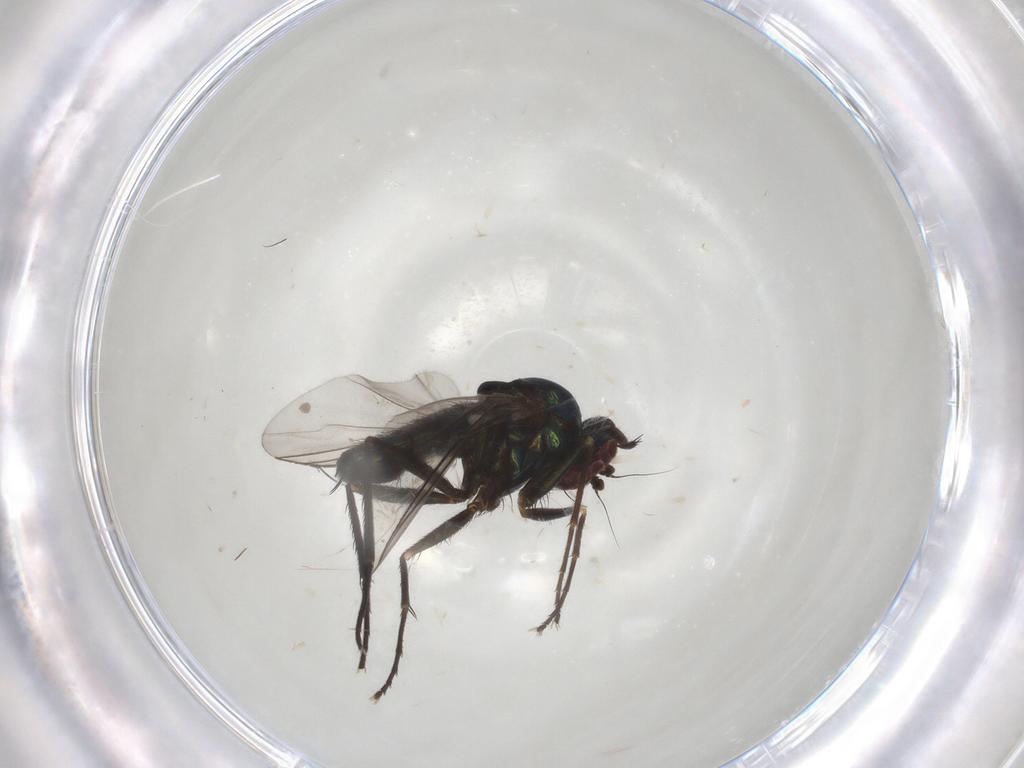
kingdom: Animalia
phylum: Arthropoda
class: Insecta
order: Diptera
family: Dolichopodidae
